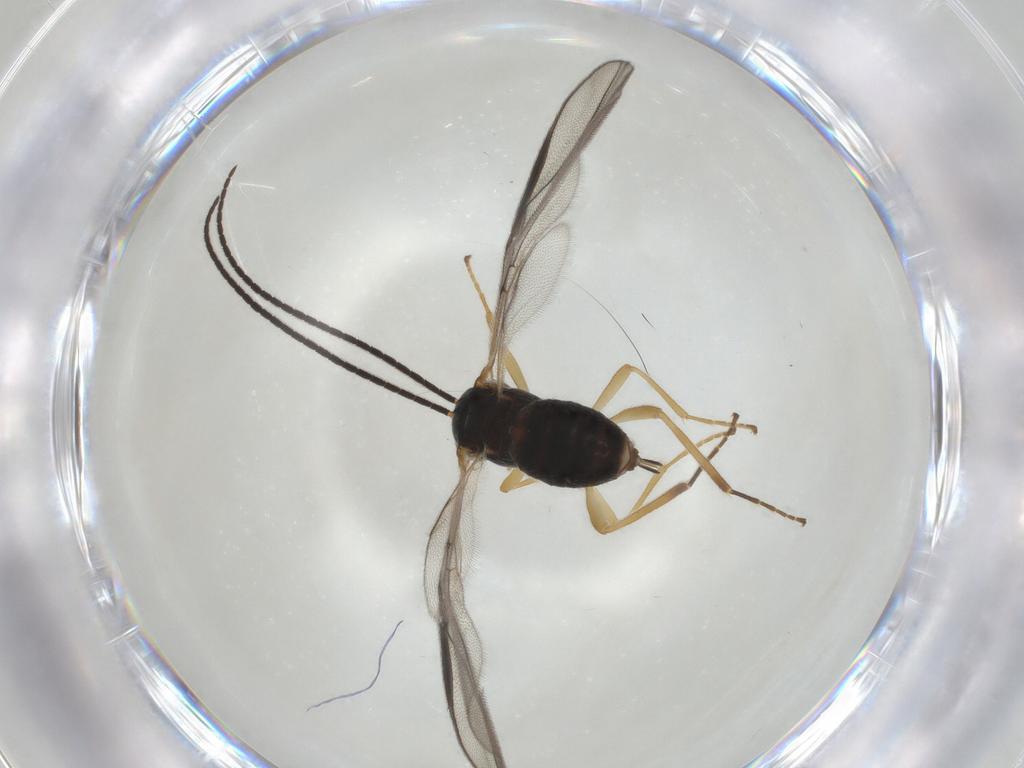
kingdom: Animalia
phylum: Arthropoda
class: Insecta
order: Hymenoptera
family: Braconidae
